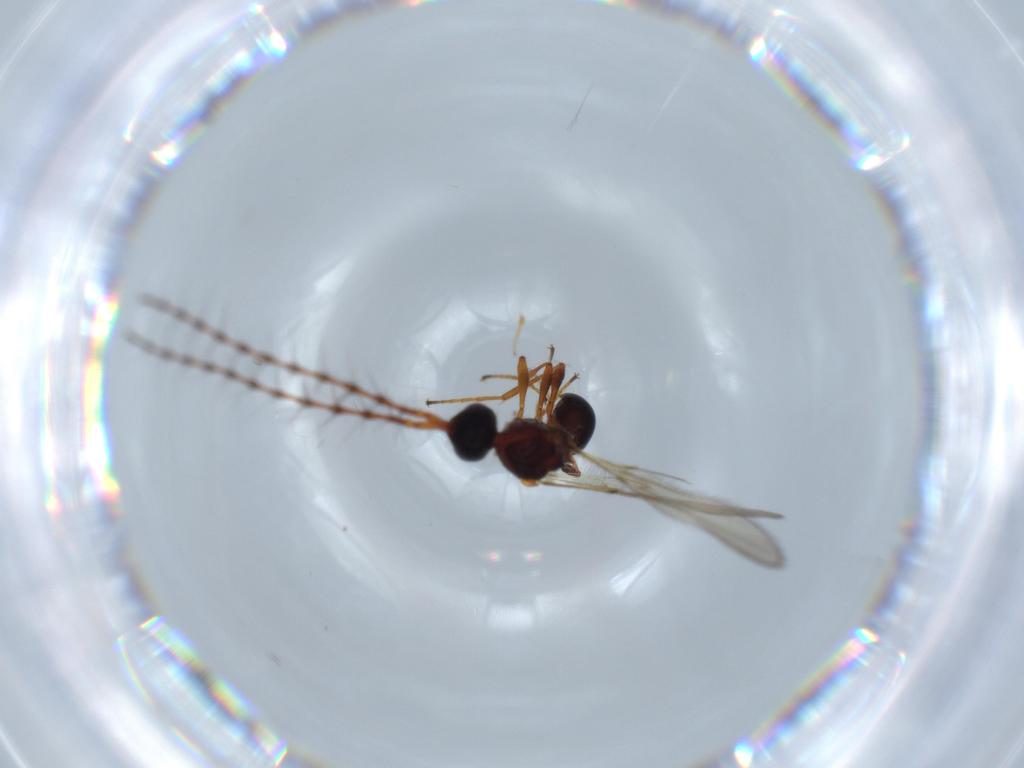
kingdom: Animalia
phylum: Arthropoda
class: Insecta
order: Hymenoptera
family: Diapriidae
